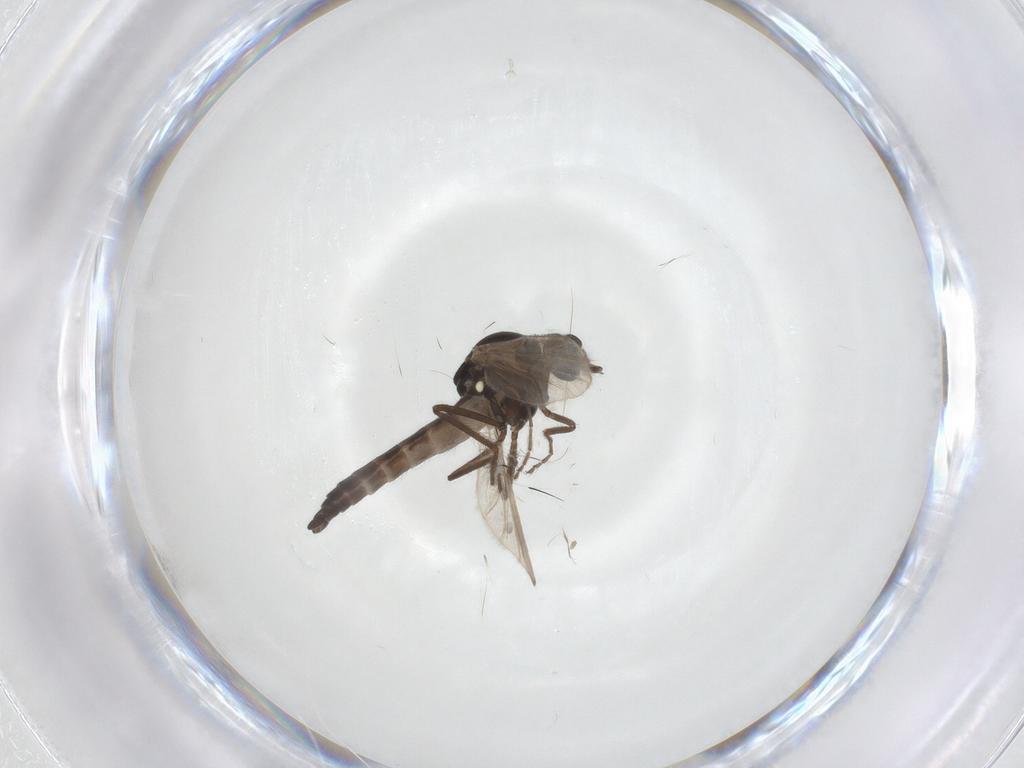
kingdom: Animalia
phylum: Arthropoda
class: Insecta
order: Diptera
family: Ceratopogonidae
